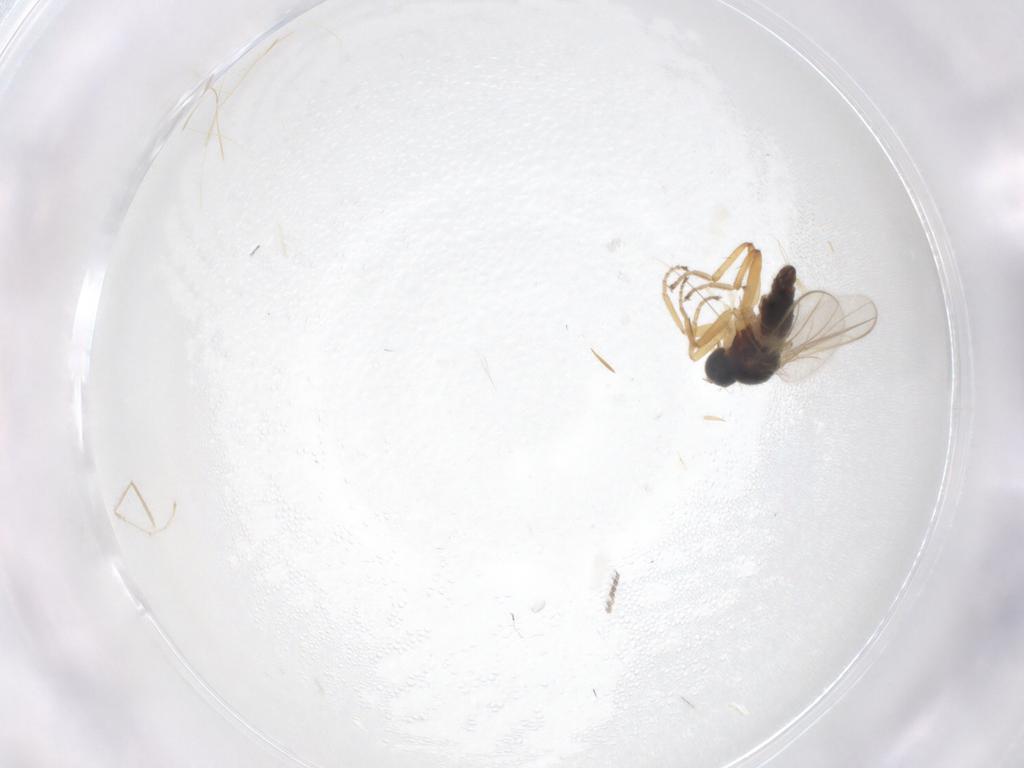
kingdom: Animalia
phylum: Arthropoda
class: Insecta
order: Diptera
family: Hybotidae
